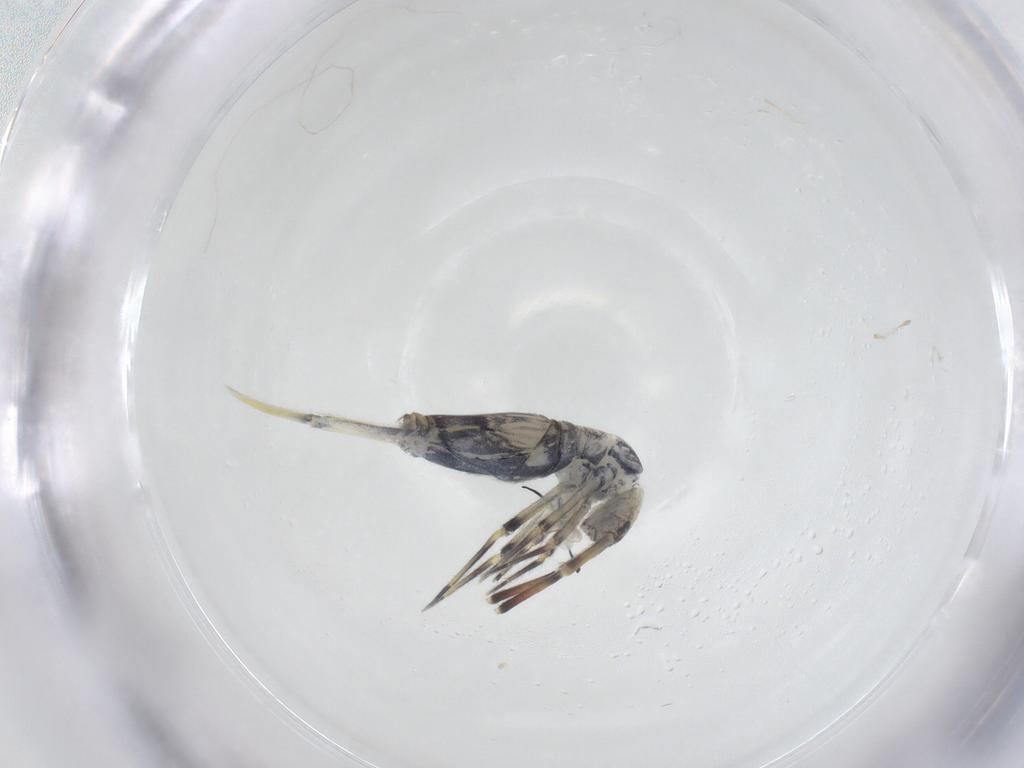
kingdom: Animalia
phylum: Arthropoda
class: Collembola
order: Entomobryomorpha
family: Entomobryidae
